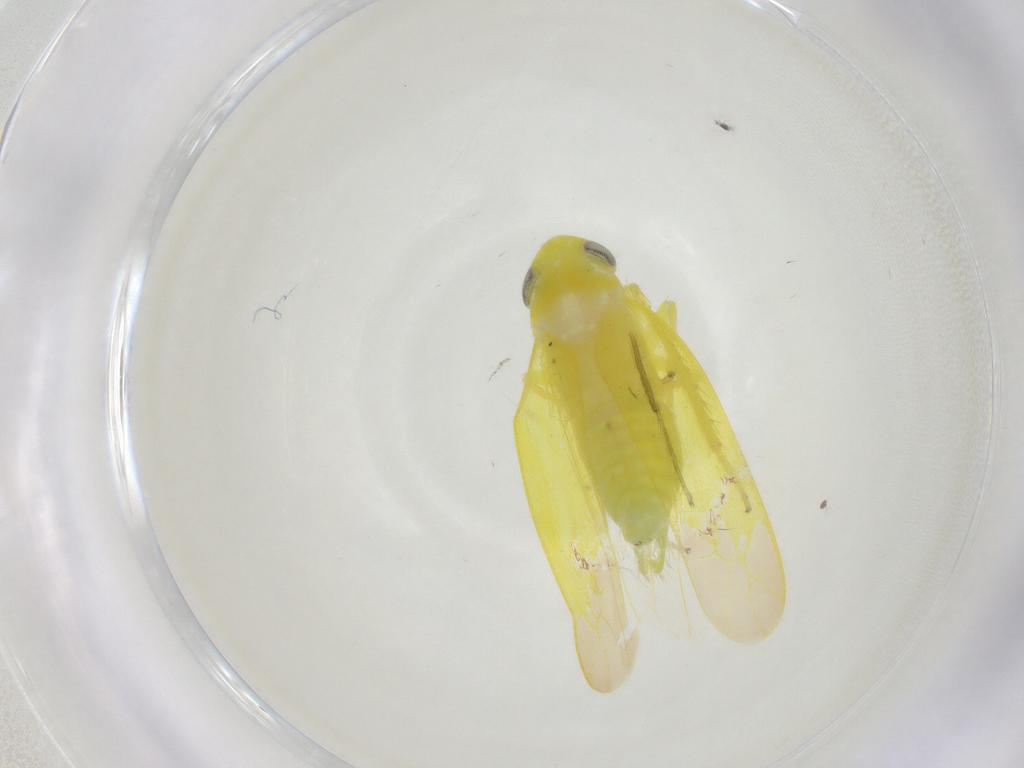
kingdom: Animalia
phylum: Arthropoda
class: Insecta
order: Hemiptera
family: Cicadellidae
